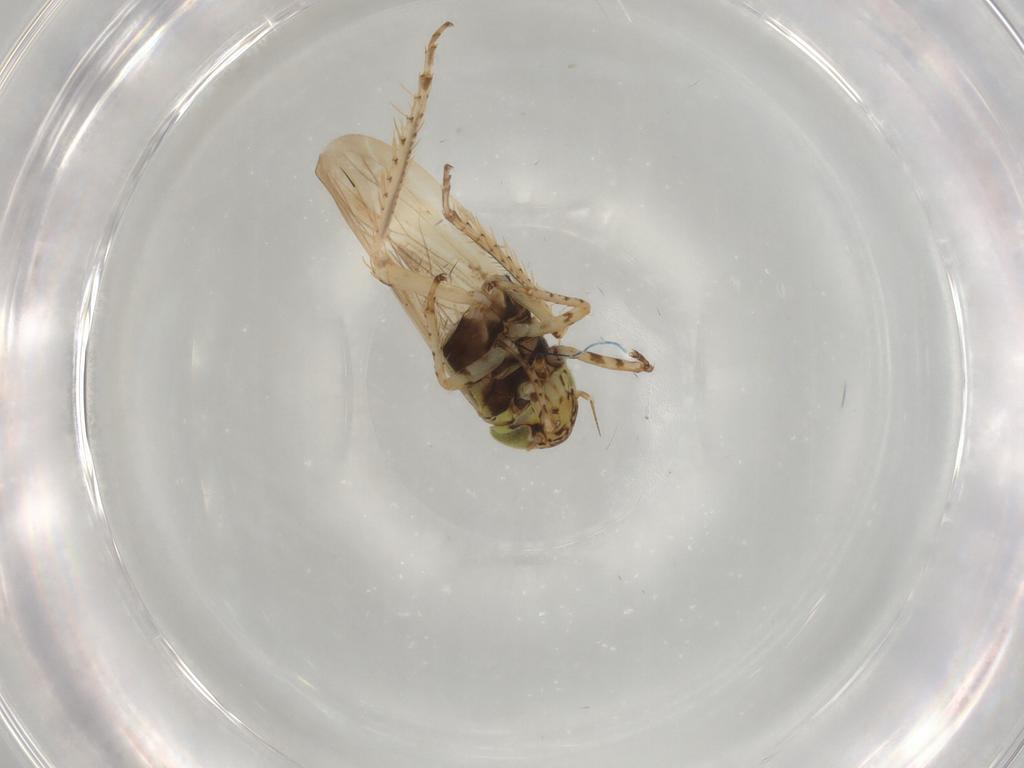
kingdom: Animalia
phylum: Arthropoda
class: Insecta
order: Hemiptera
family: Cicadellidae
